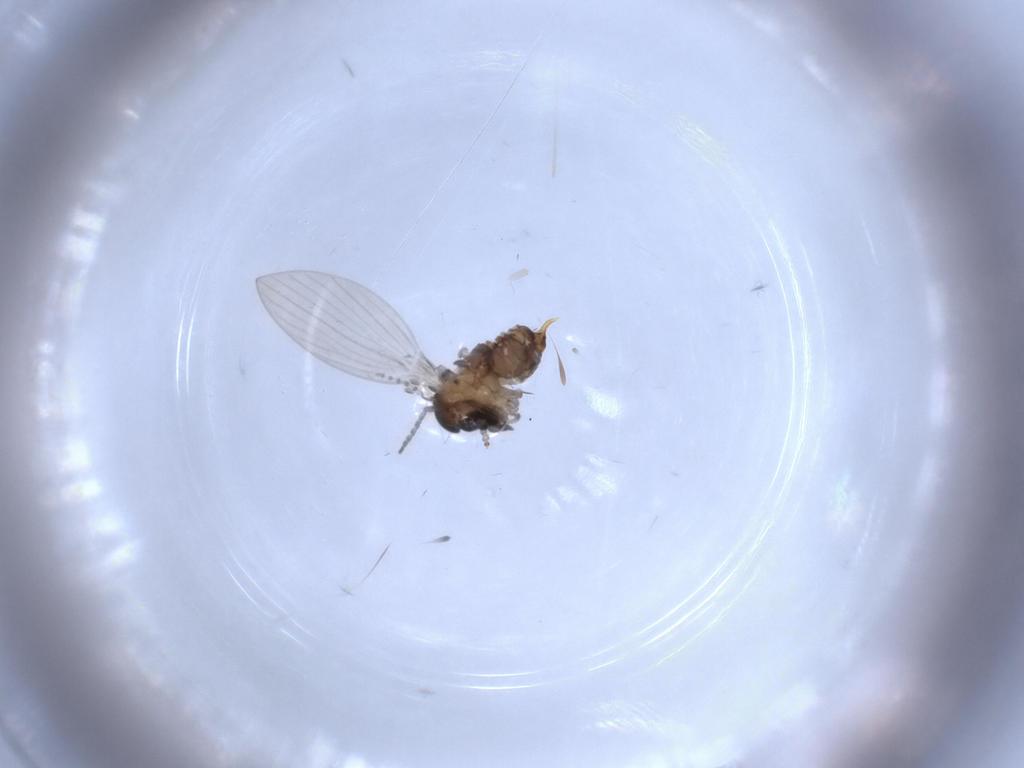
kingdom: Animalia
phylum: Arthropoda
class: Insecta
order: Diptera
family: Psychodidae
